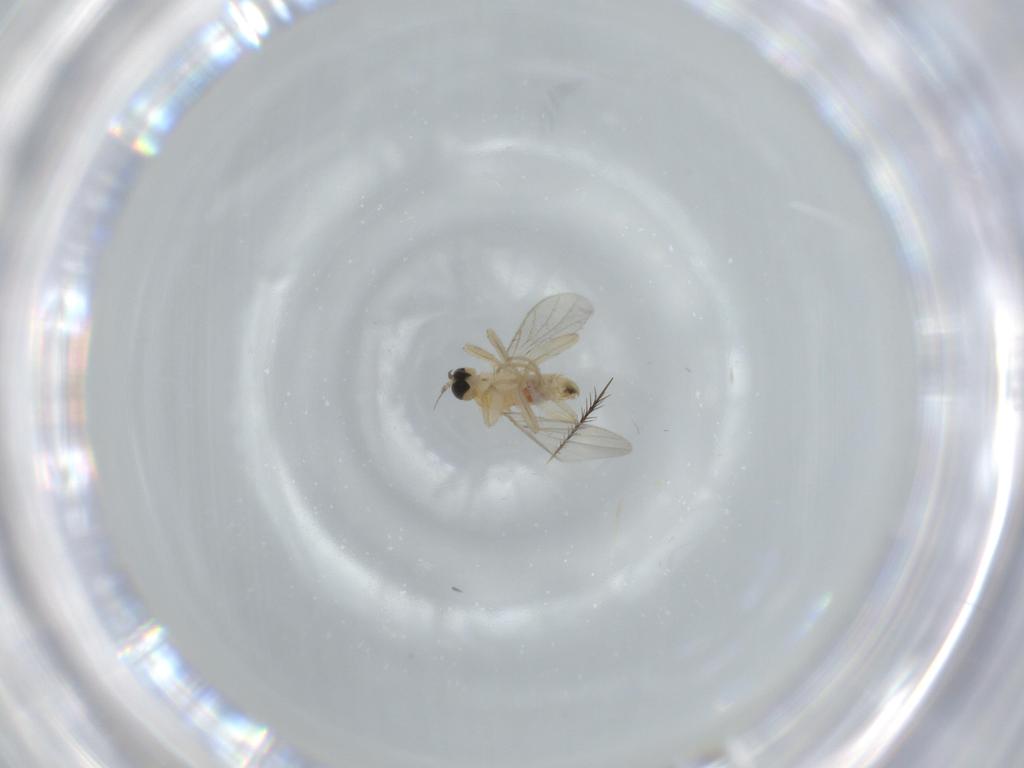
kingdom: Animalia
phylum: Arthropoda
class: Insecta
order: Diptera
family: Hybotidae
